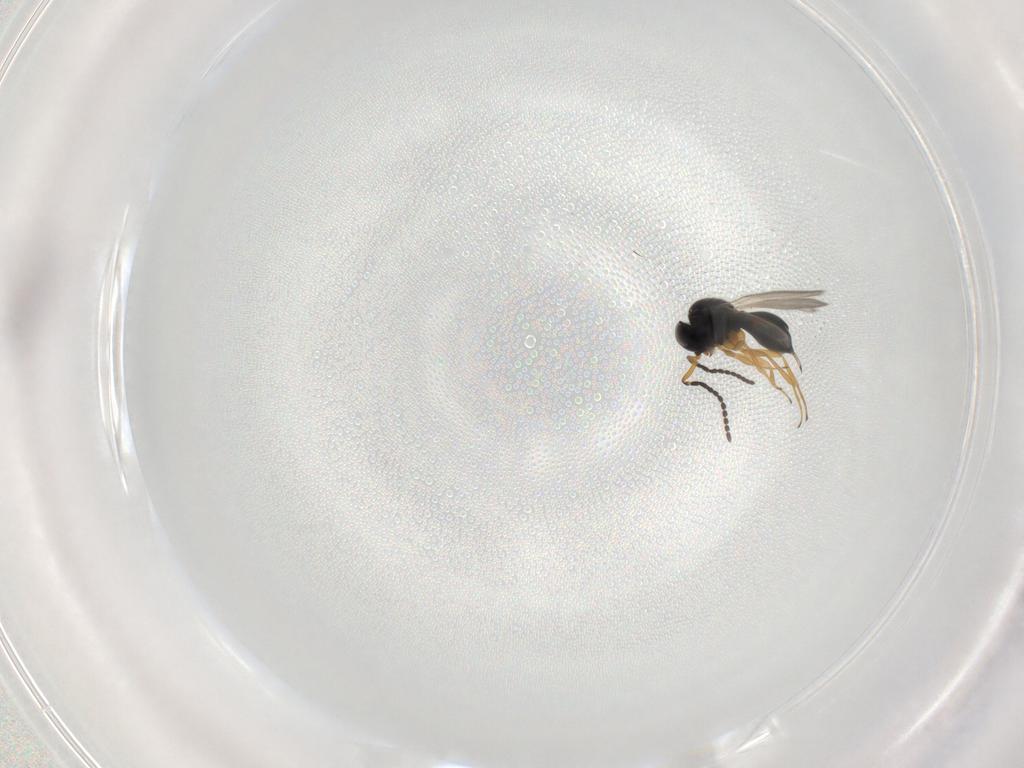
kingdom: Animalia
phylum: Arthropoda
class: Insecta
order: Hymenoptera
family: Scelionidae
